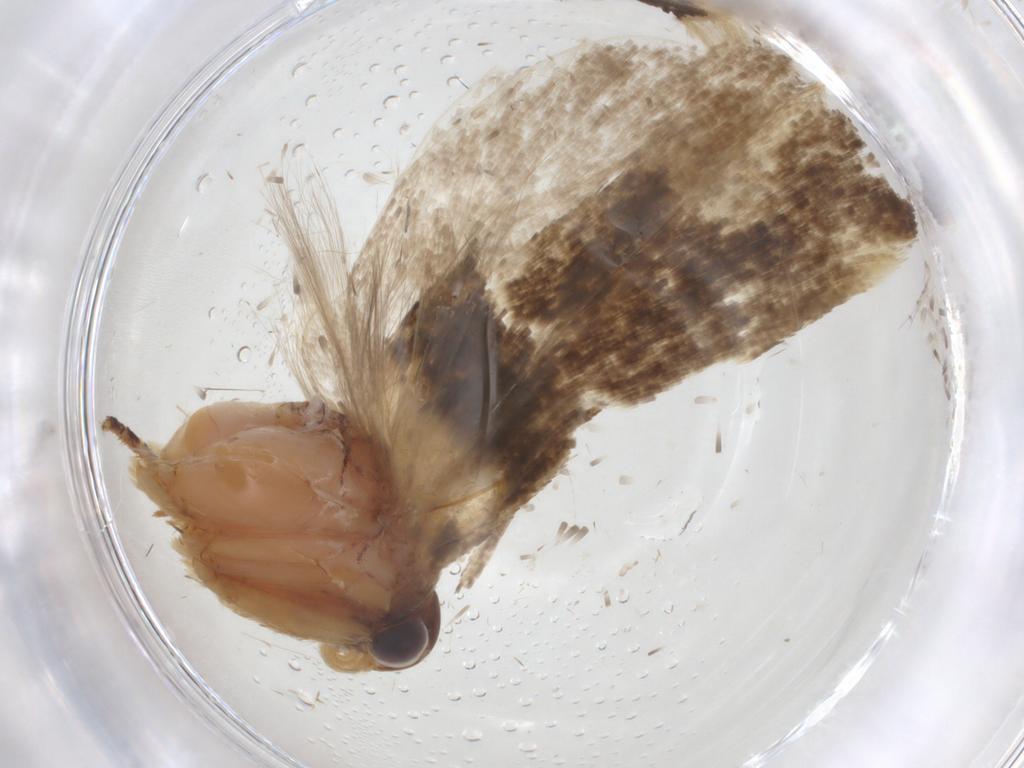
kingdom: Animalia
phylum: Arthropoda
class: Insecta
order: Lepidoptera
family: Gelechiidae
